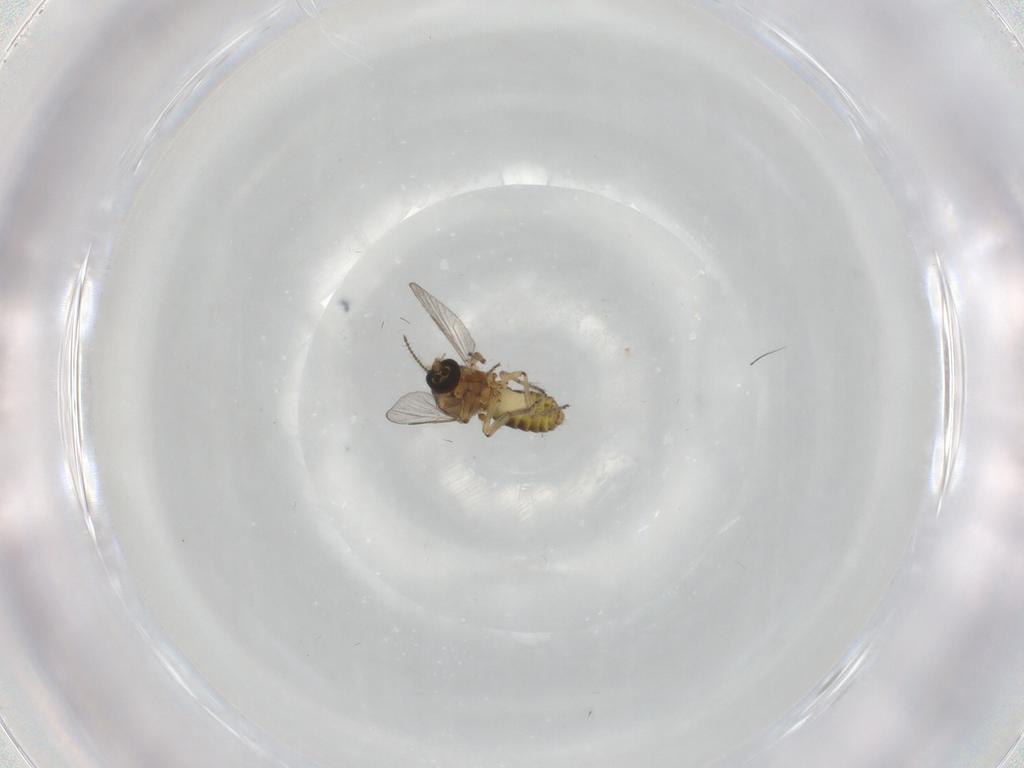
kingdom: Animalia
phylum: Arthropoda
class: Insecta
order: Diptera
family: Ceratopogonidae
